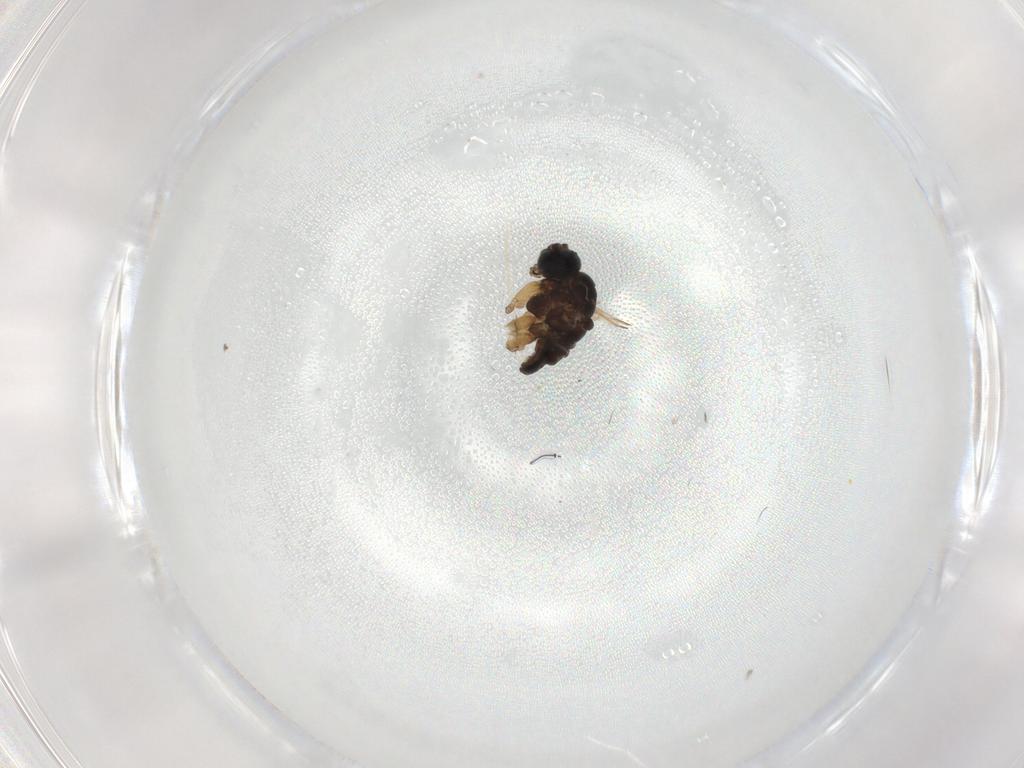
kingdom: Animalia
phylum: Arthropoda
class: Insecta
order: Diptera
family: Sciaridae
